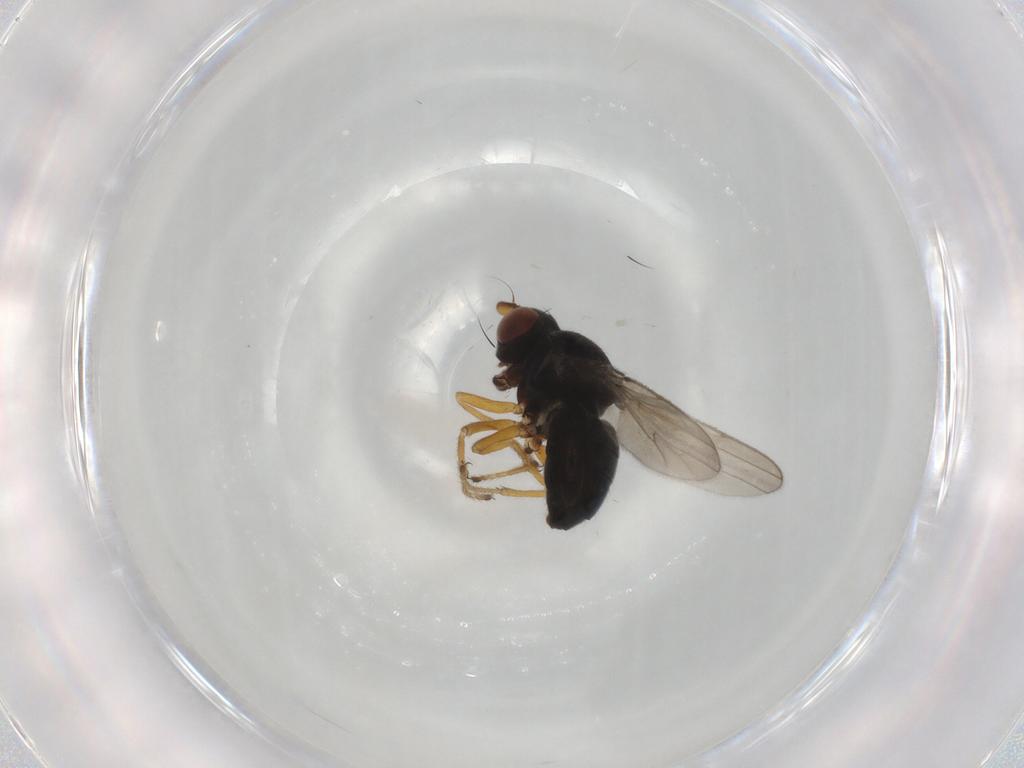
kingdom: Animalia
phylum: Arthropoda
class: Insecta
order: Diptera
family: Ephydridae
